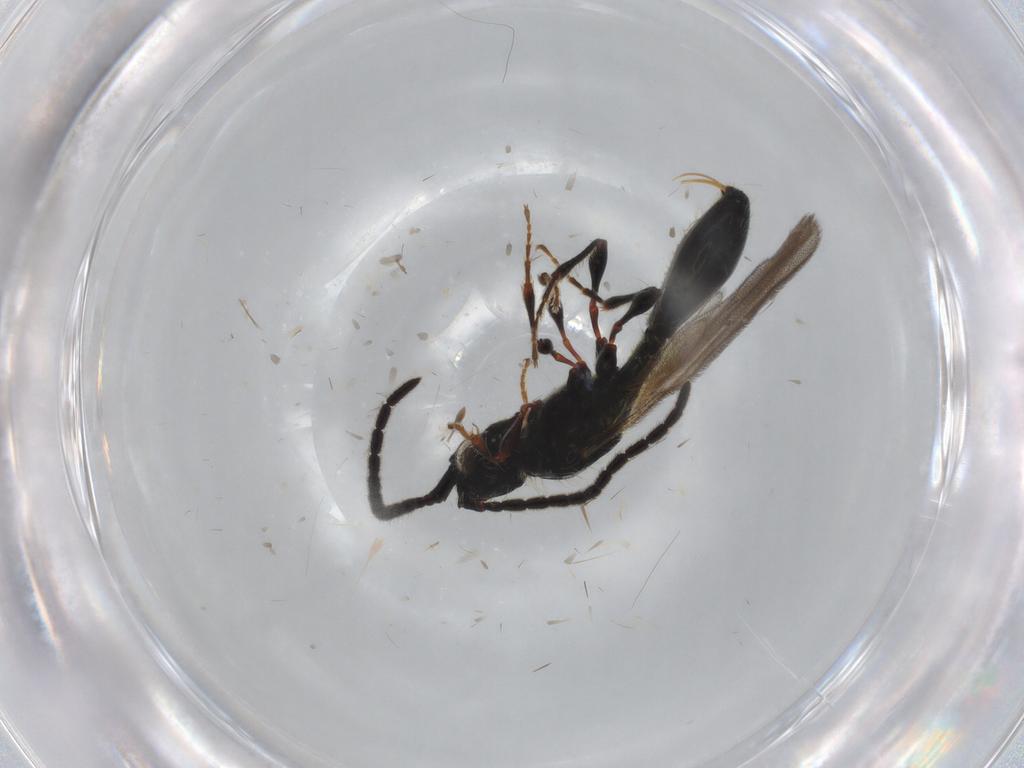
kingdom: Animalia
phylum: Arthropoda
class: Insecta
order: Hymenoptera
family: Diapriidae
